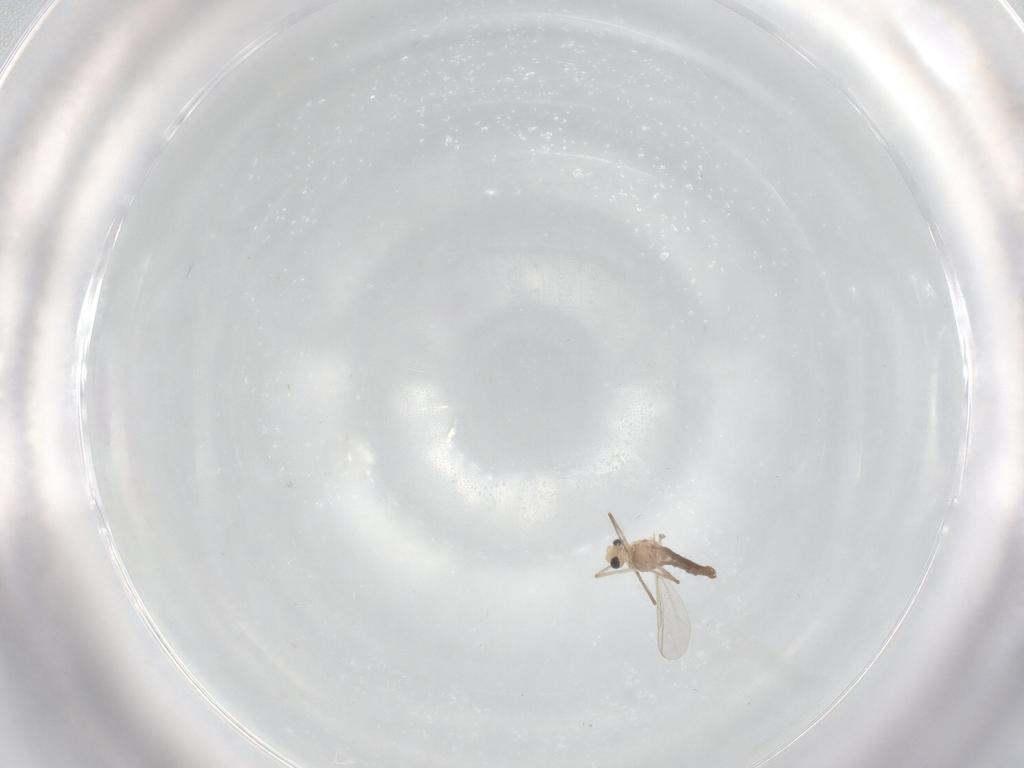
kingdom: Animalia
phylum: Arthropoda
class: Insecta
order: Diptera
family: Chironomidae
